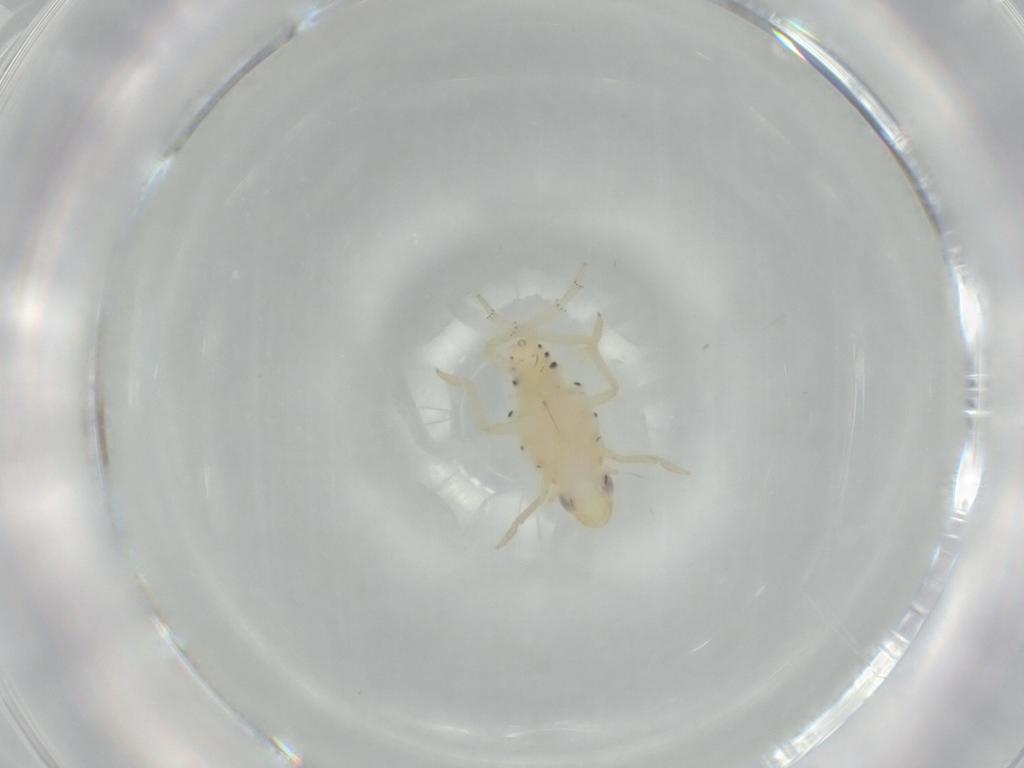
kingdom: Animalia
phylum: Arthropoda
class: Insecta
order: Hemiptera
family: Tropiduchidae
